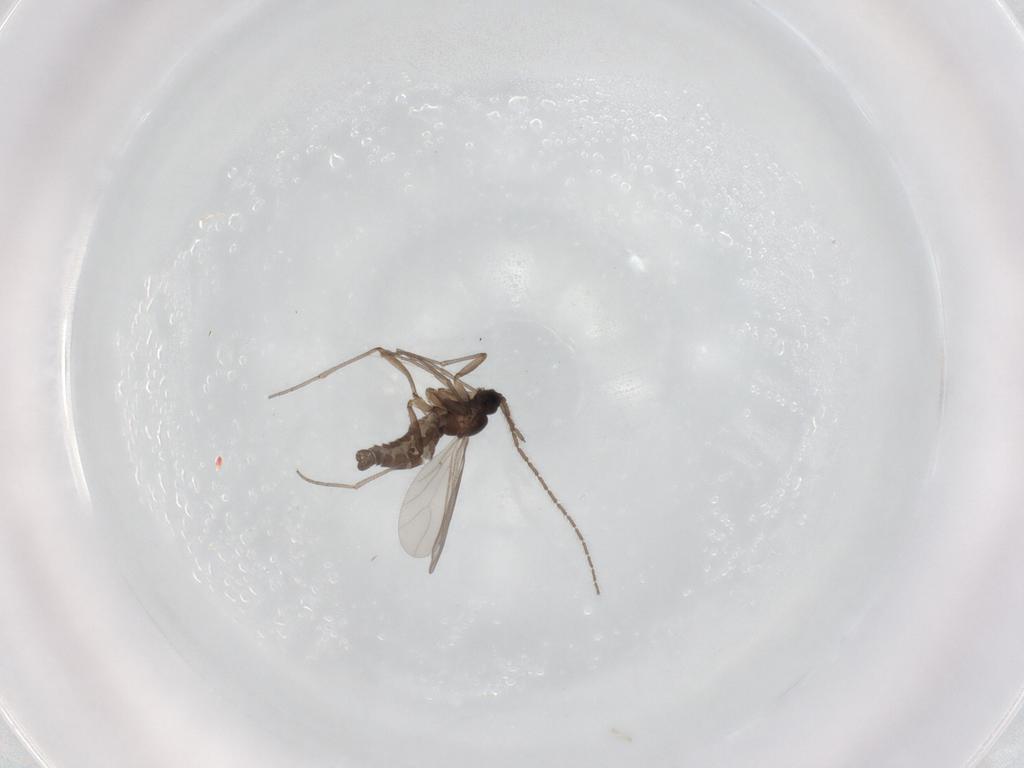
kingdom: Animalia
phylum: Arthropoda
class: Insecta
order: Diptera
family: Sciaridae
